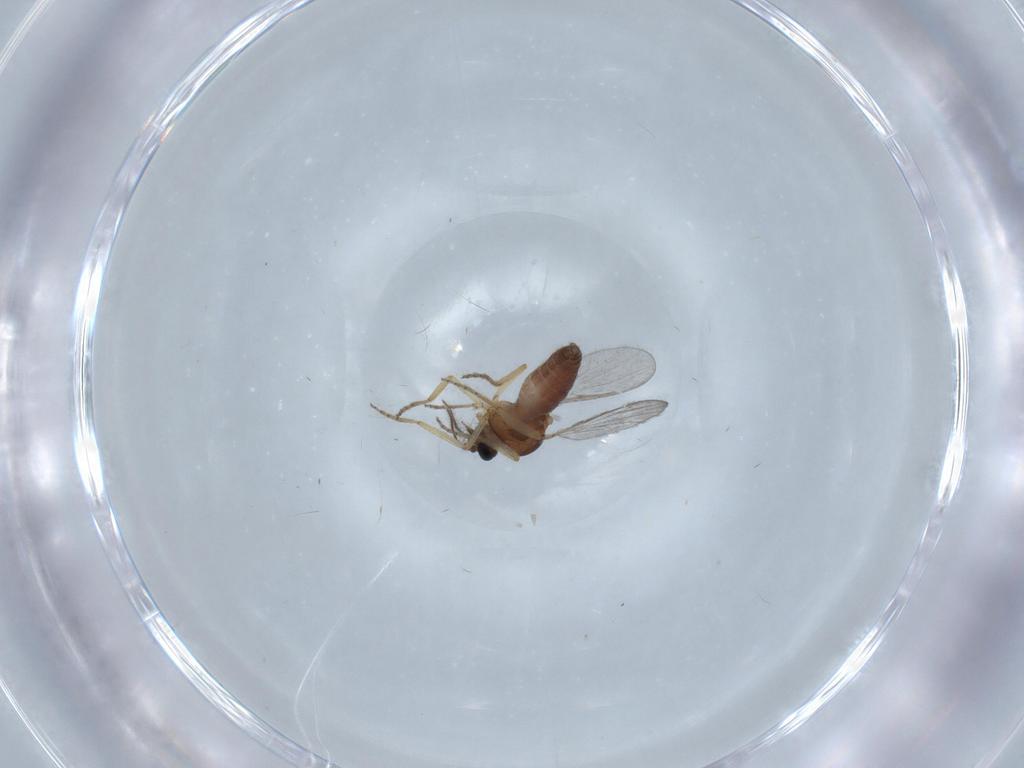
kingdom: Animalia
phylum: Arthropoda
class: Insecta
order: Diptera
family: Ceratopogonidae
